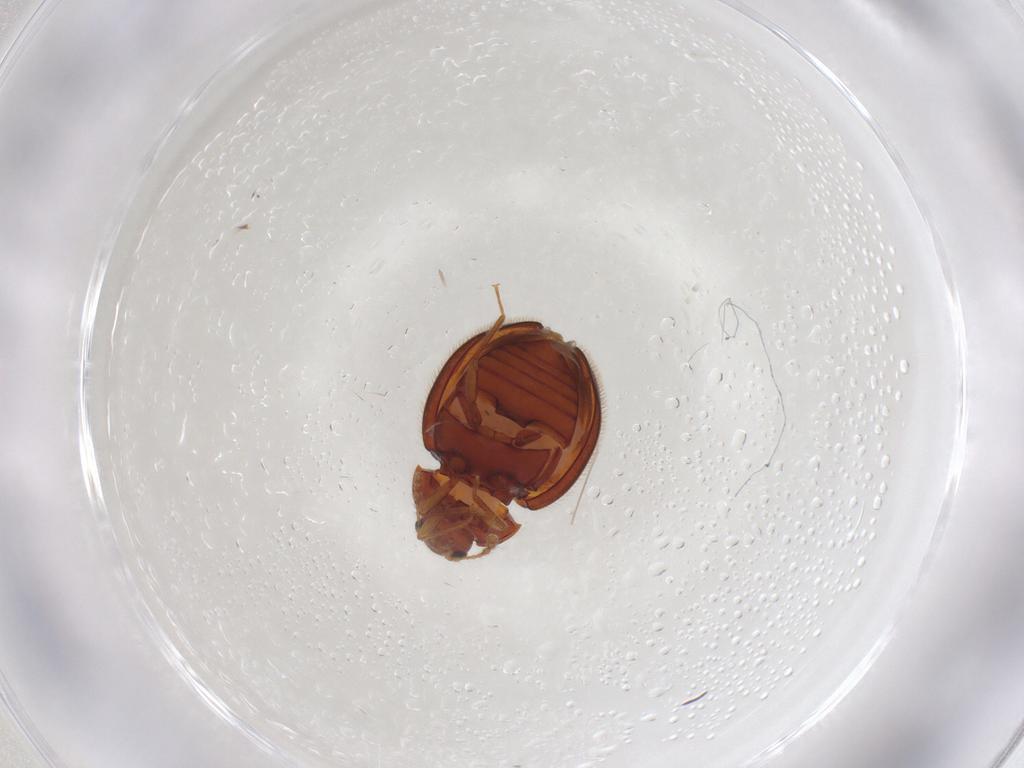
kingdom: Animalia
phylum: Arthropoda
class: Insecta
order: Coleoptera
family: Anamorphidae
